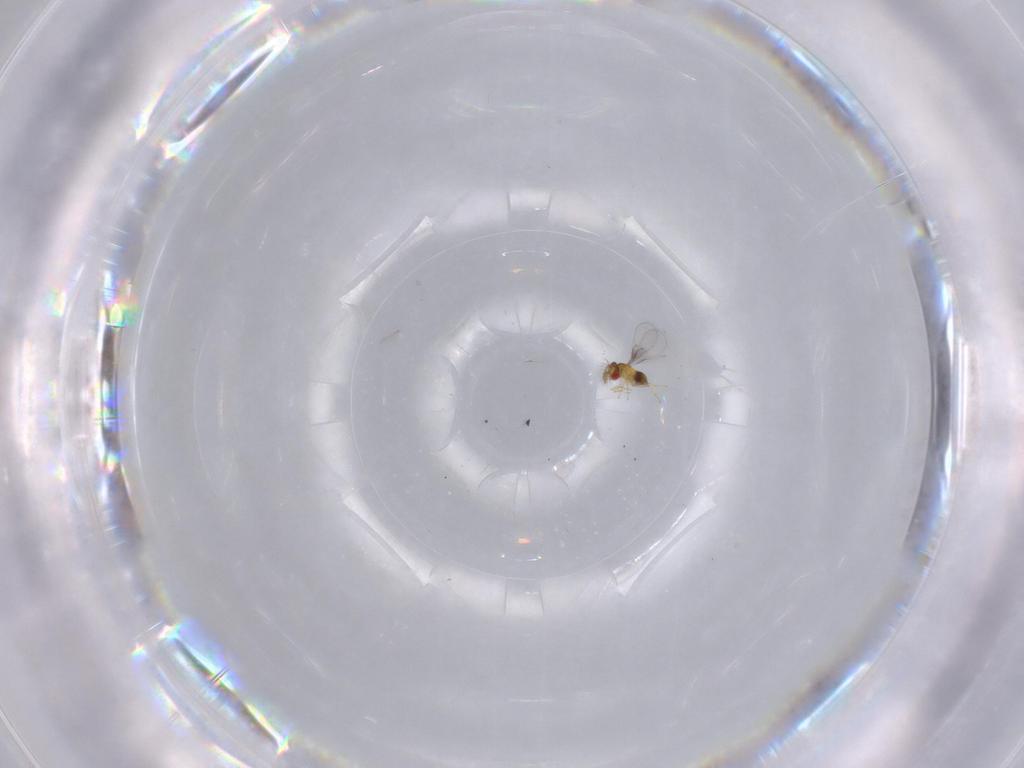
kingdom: Animalia
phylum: Arthropoda
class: Insecta
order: Hymenoptera
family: Trichogrammatidae
